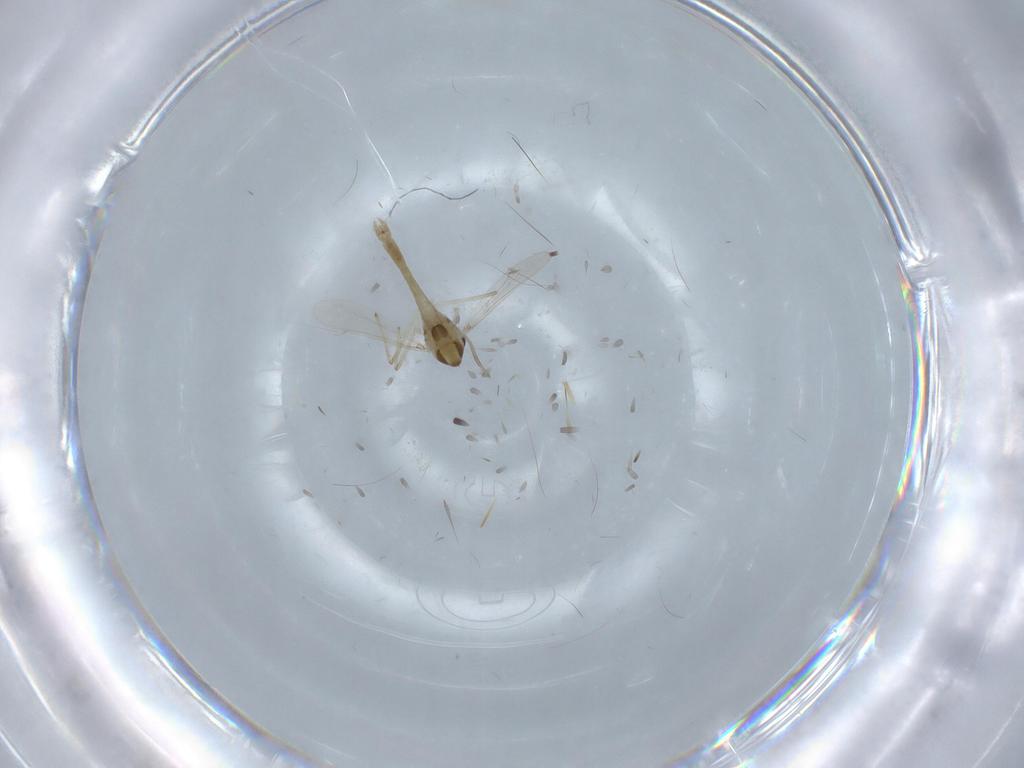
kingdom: Animalia
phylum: Arthropoda
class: Insecta
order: Diptera
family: Chironomidae
